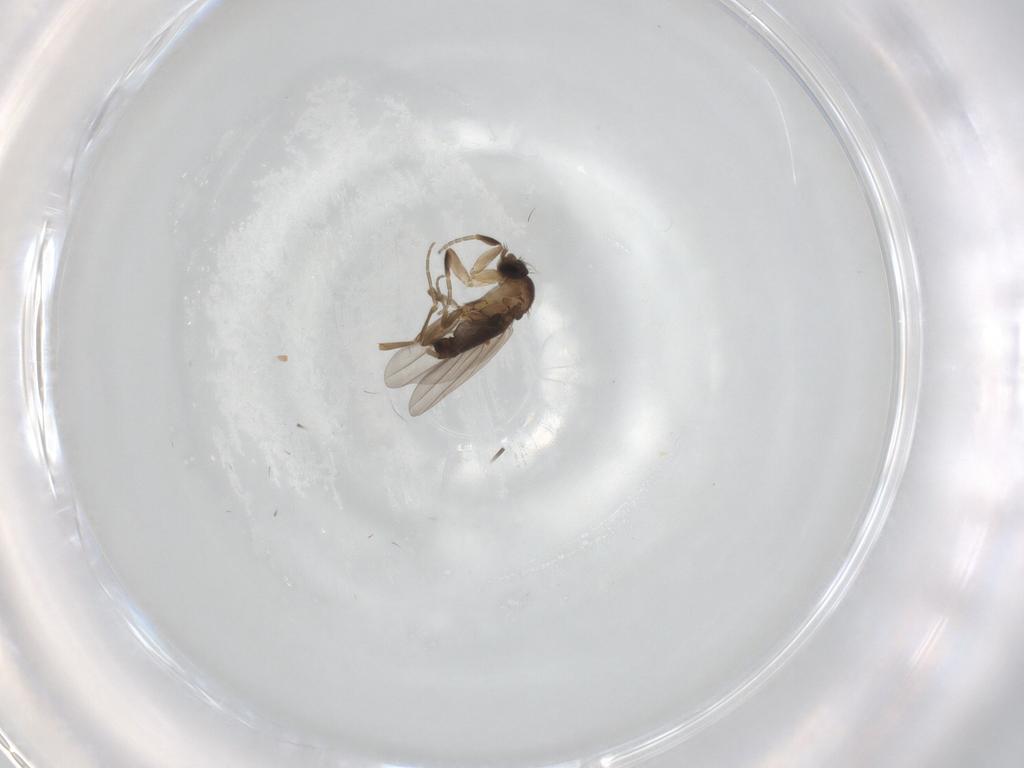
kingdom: Animalia
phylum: Arthropoda
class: Insecta
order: Diptera
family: Phoridae
